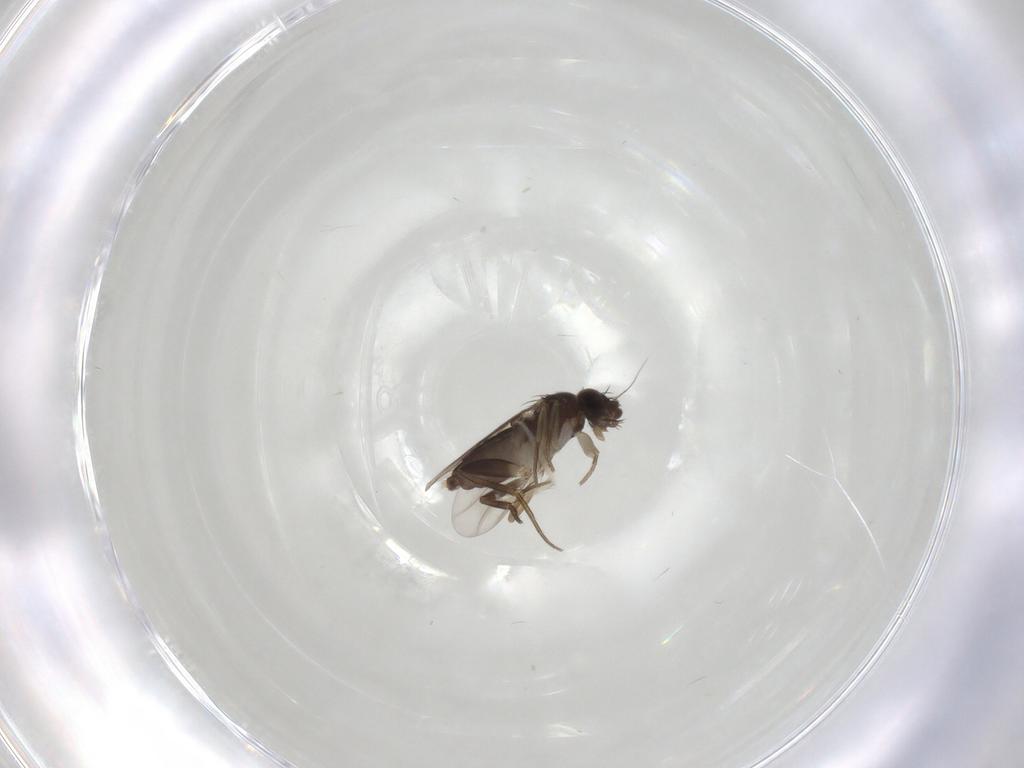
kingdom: Animalia
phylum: Arthropoda
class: Insecta
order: Diptera
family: Phoridae
